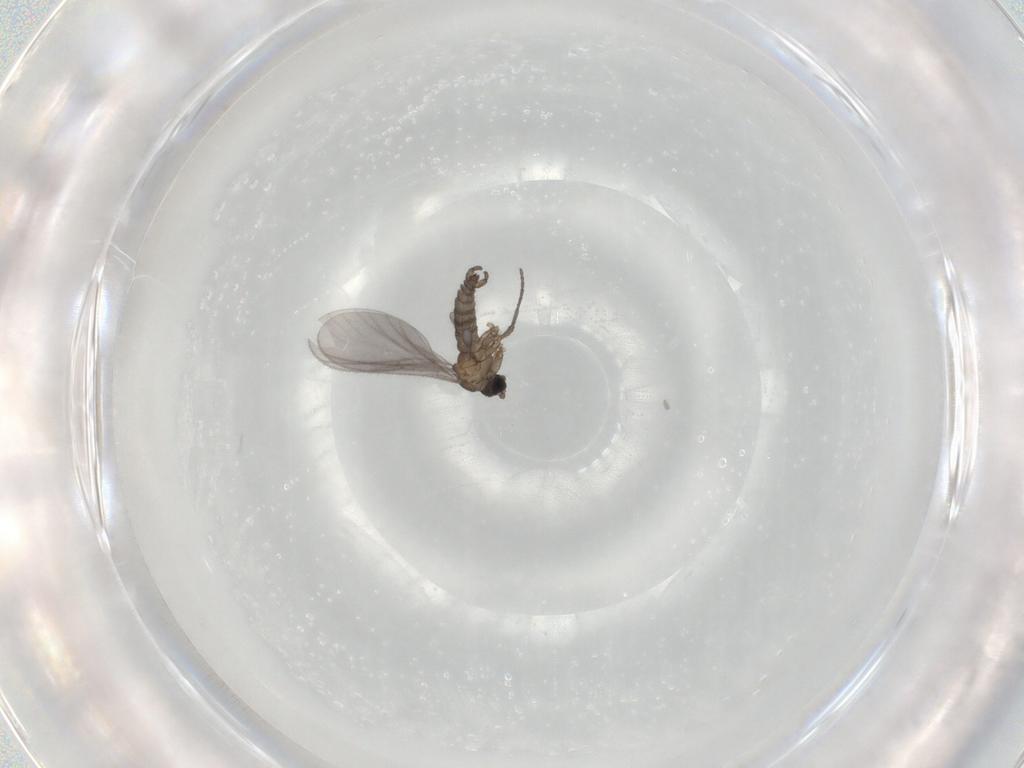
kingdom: Animalia
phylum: Arthropoda
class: Insecta
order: Diptera
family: Sciaridae
